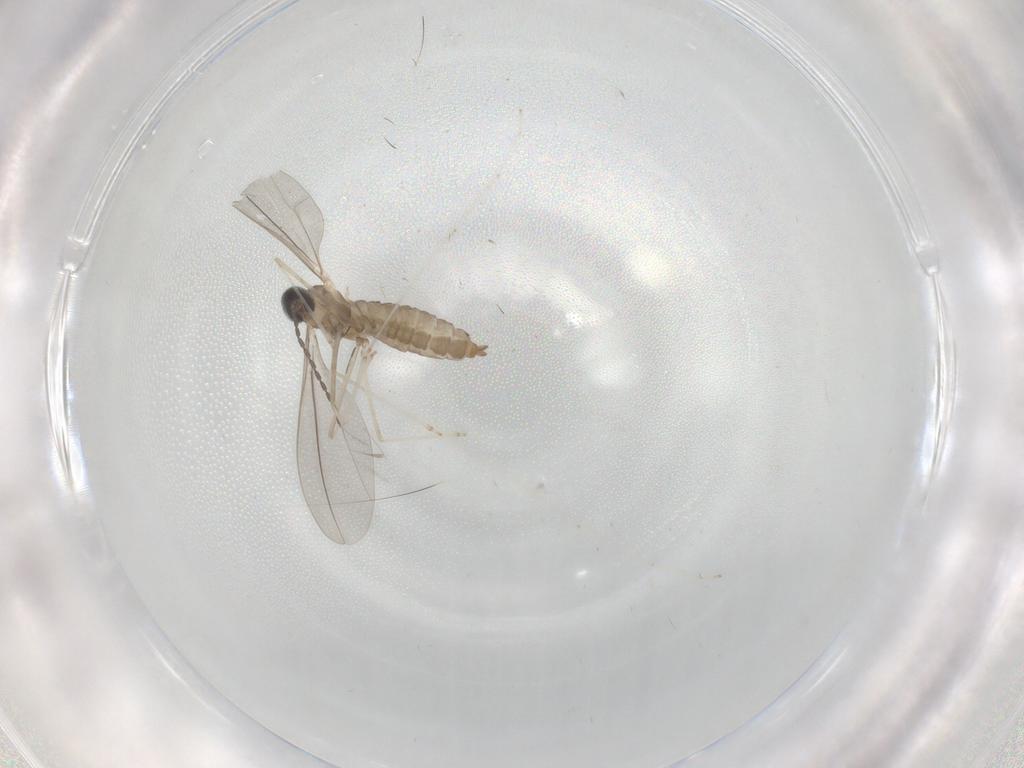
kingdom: Animalia
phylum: Arthropoda
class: Insecta
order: Diptera
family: Cecidomyiidae
